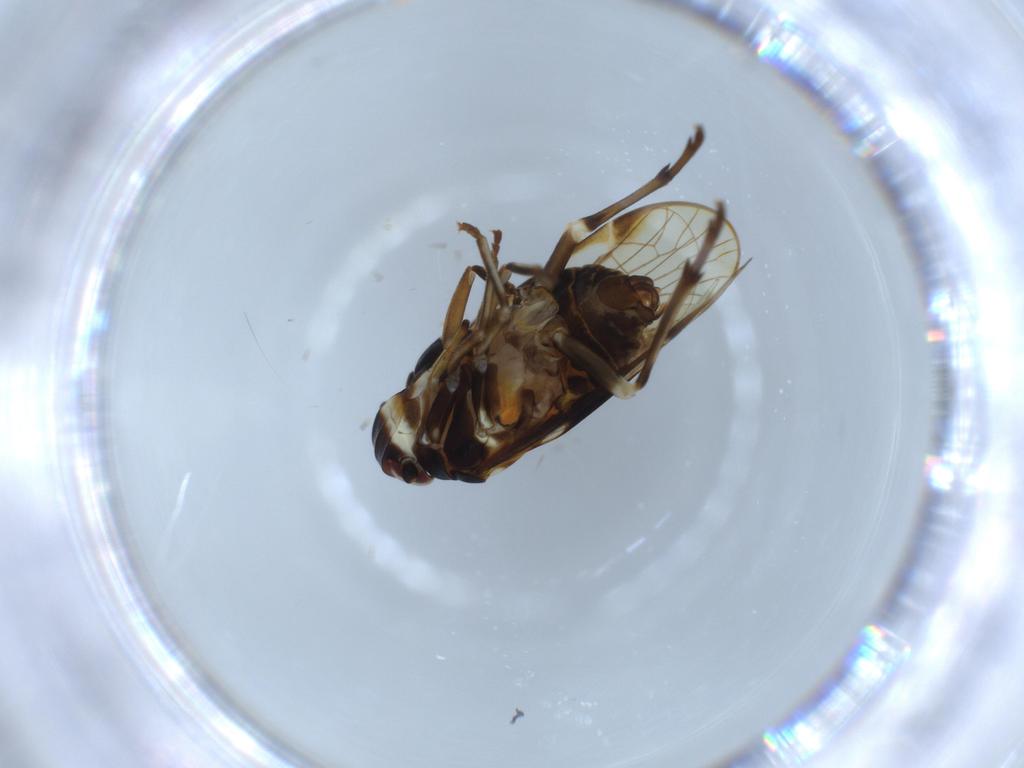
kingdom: Animalia
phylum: Arthropoda
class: Insecta
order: Hemiptera
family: Kinnaridae
